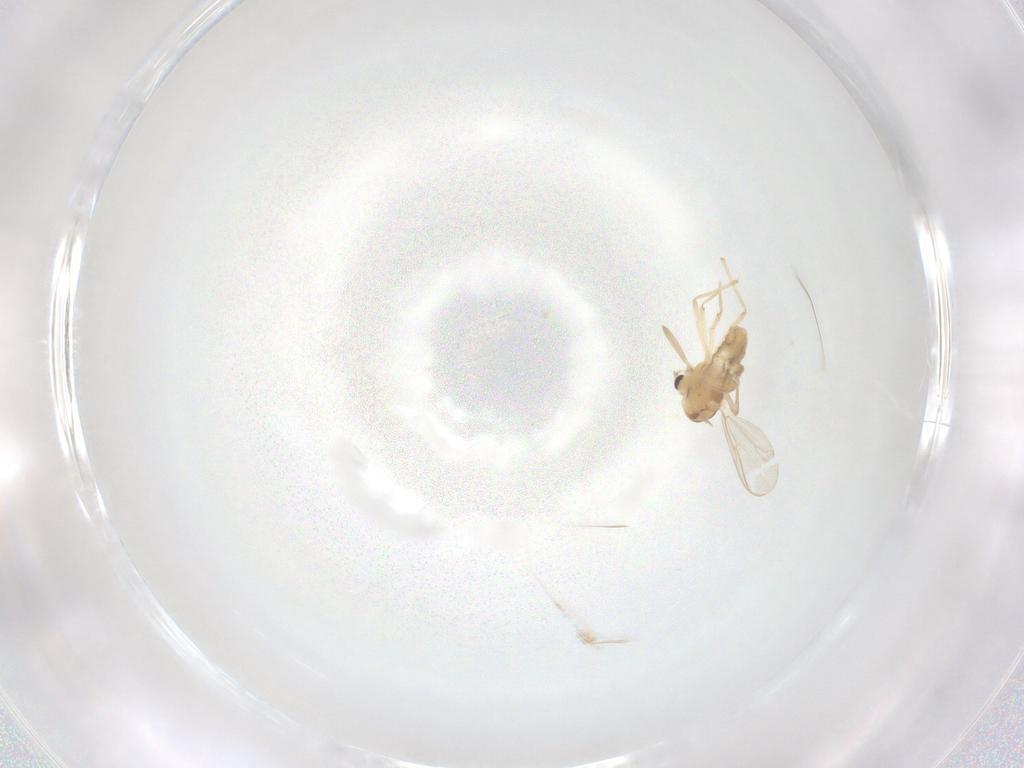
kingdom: Animalia
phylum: Arthropoda
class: Insecta
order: Diptera
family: Chironomidae
